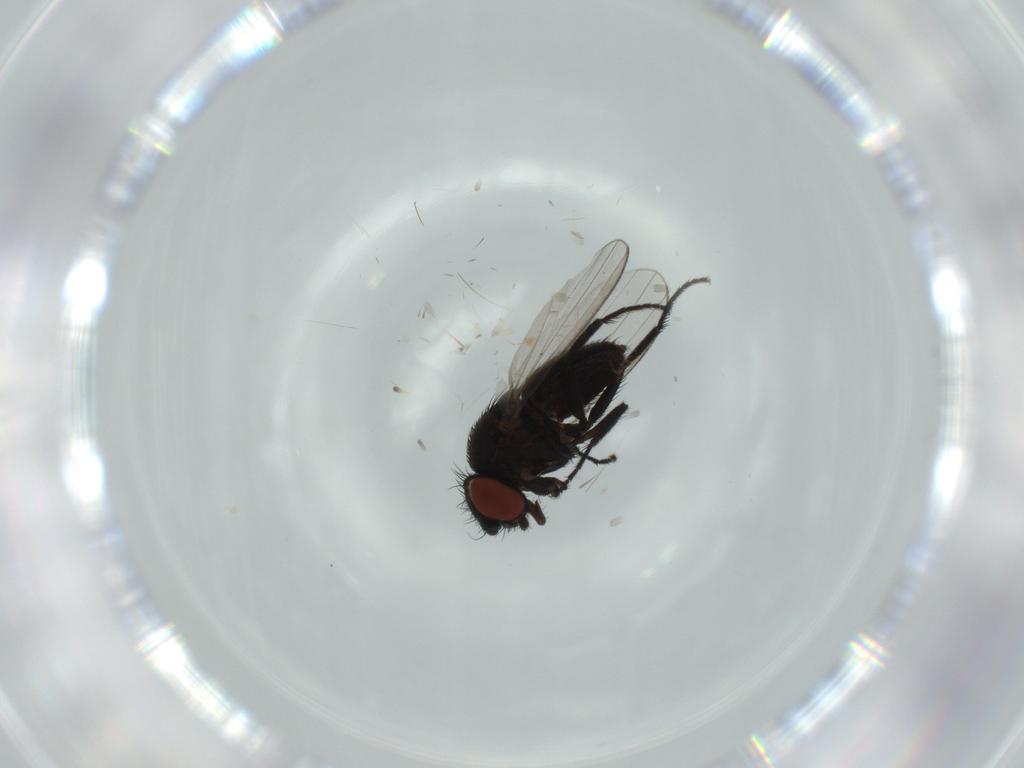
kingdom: Animalia
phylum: Arthropoda
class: Insecta
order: Diptera
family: Milichiidae
